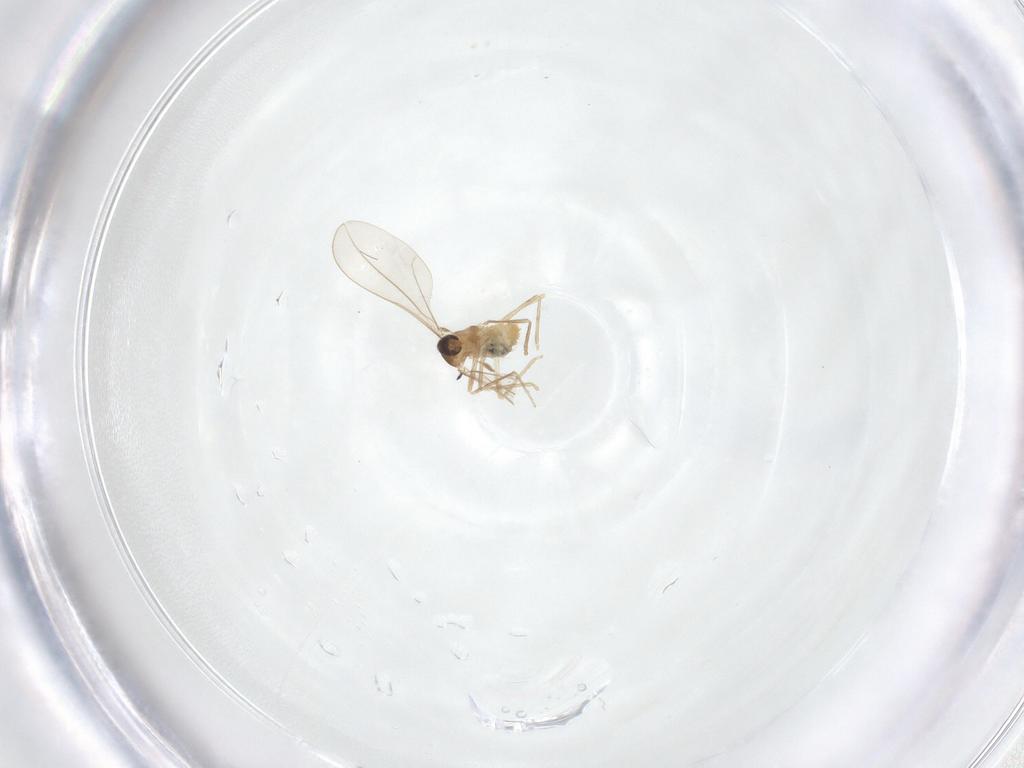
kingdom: Animalia
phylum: Arthropoda
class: Insecta
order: Diptera
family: Cecidomyiidae
